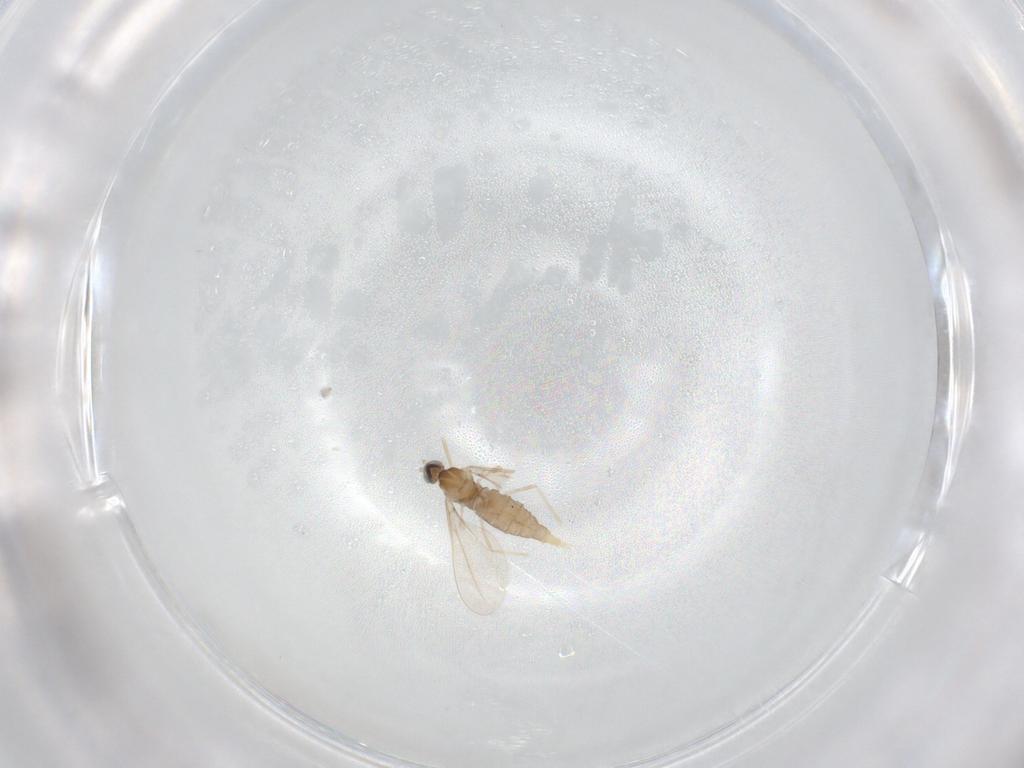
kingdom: Animalia
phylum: Arthropoda
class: Insecta
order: Diptera
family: Cecidomyiidae
